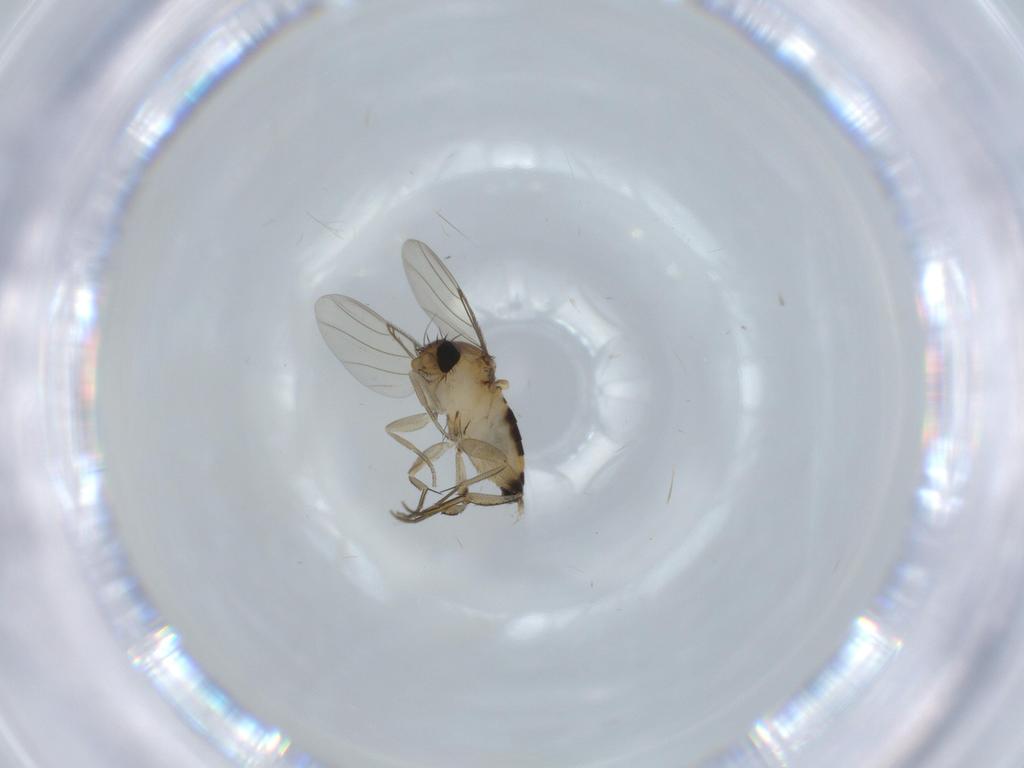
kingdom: Animalia
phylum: Arthropoda
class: Insecta
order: Diptera
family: Phoridae
